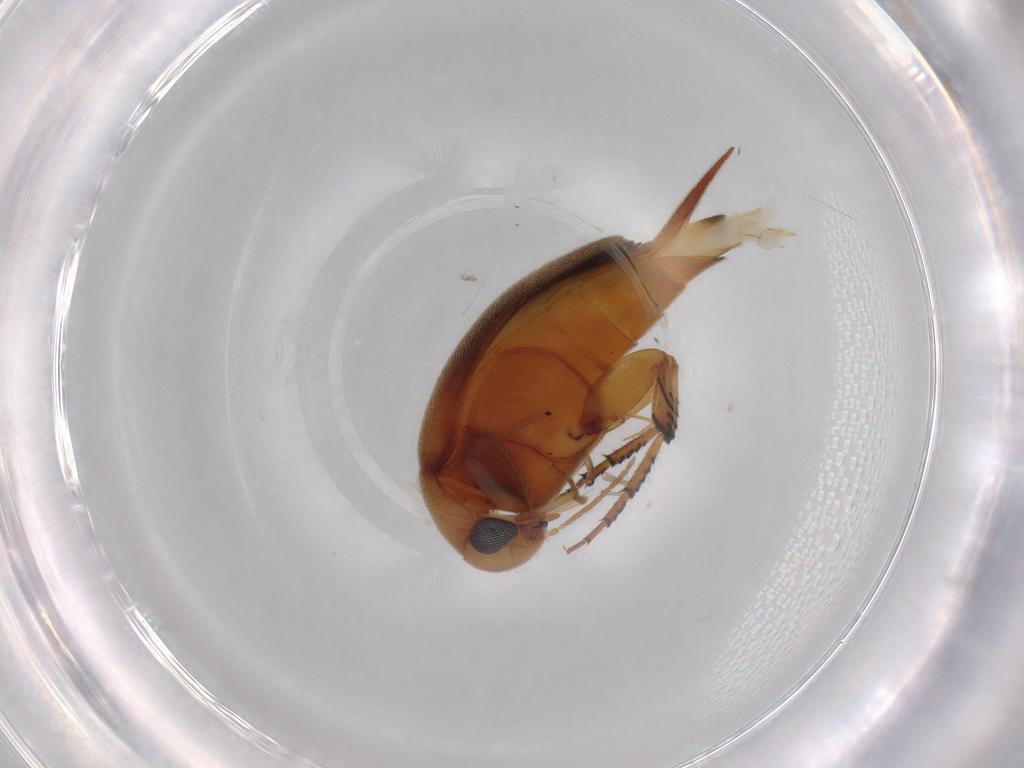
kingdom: Animalia
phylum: Arthropoda
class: Insecta
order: Coleoptera
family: Mordellidae
